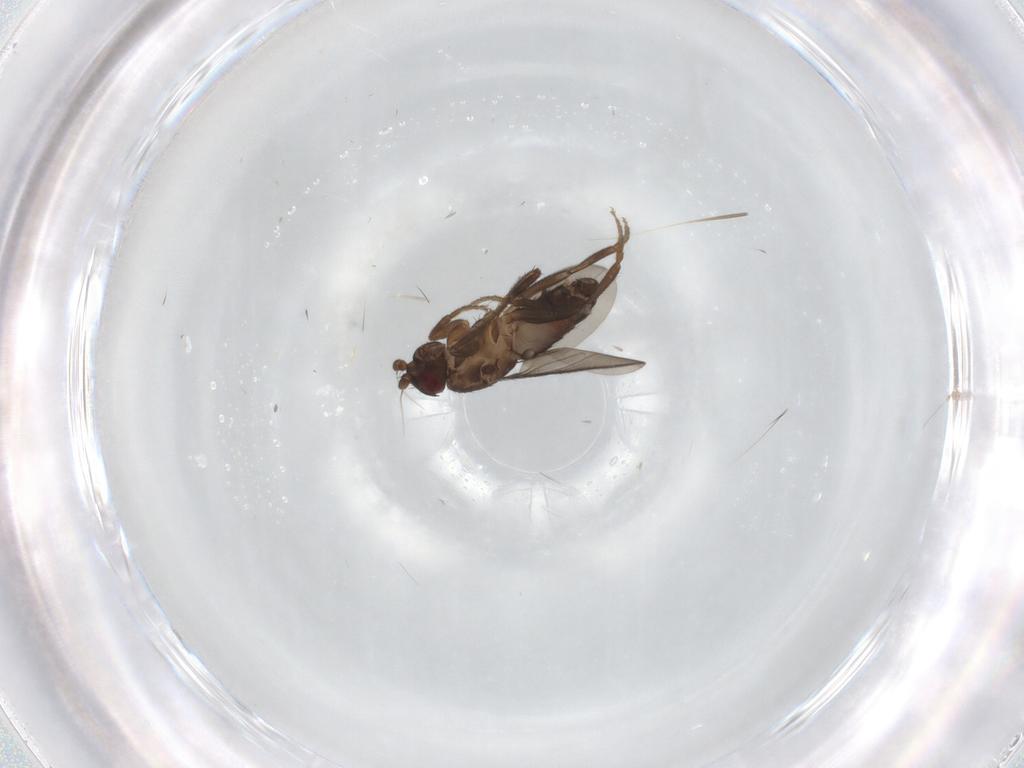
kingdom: Animalia
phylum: Arthropoda
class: Insecta
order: Diptera
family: Sphaeroceridae
